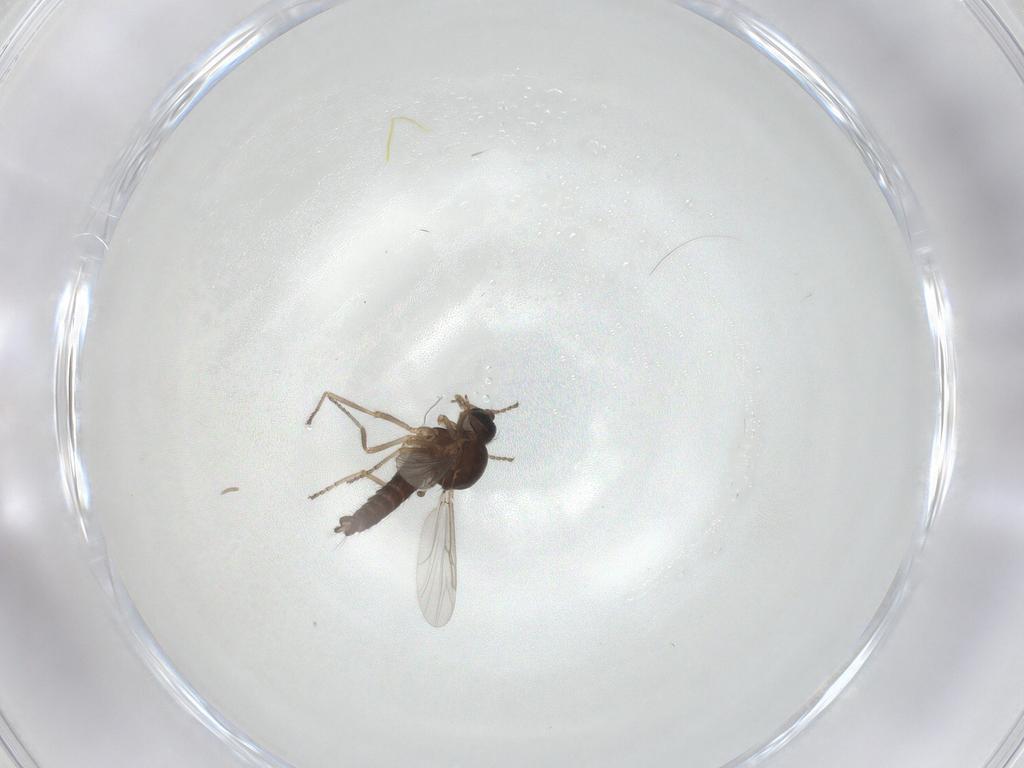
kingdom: Animalia
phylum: Arthropoda
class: Insecta
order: Diptera
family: Ceratopogonidae
